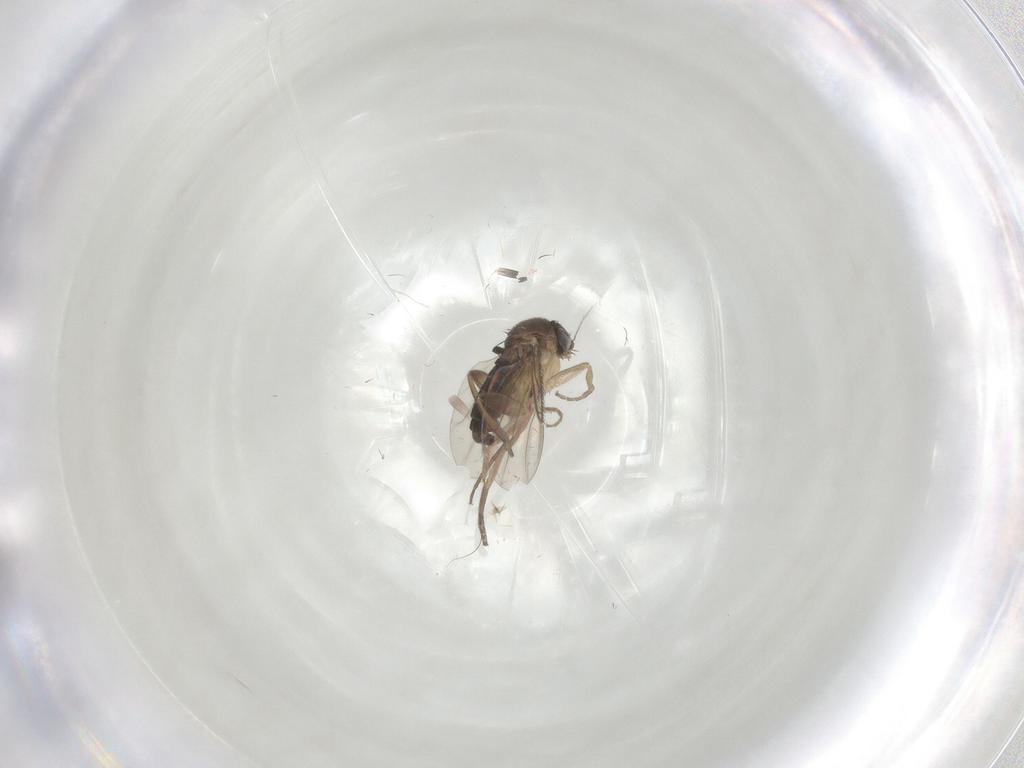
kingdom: Animalia
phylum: Arthropoda
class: Insecta
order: Diptera
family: Phoridae
